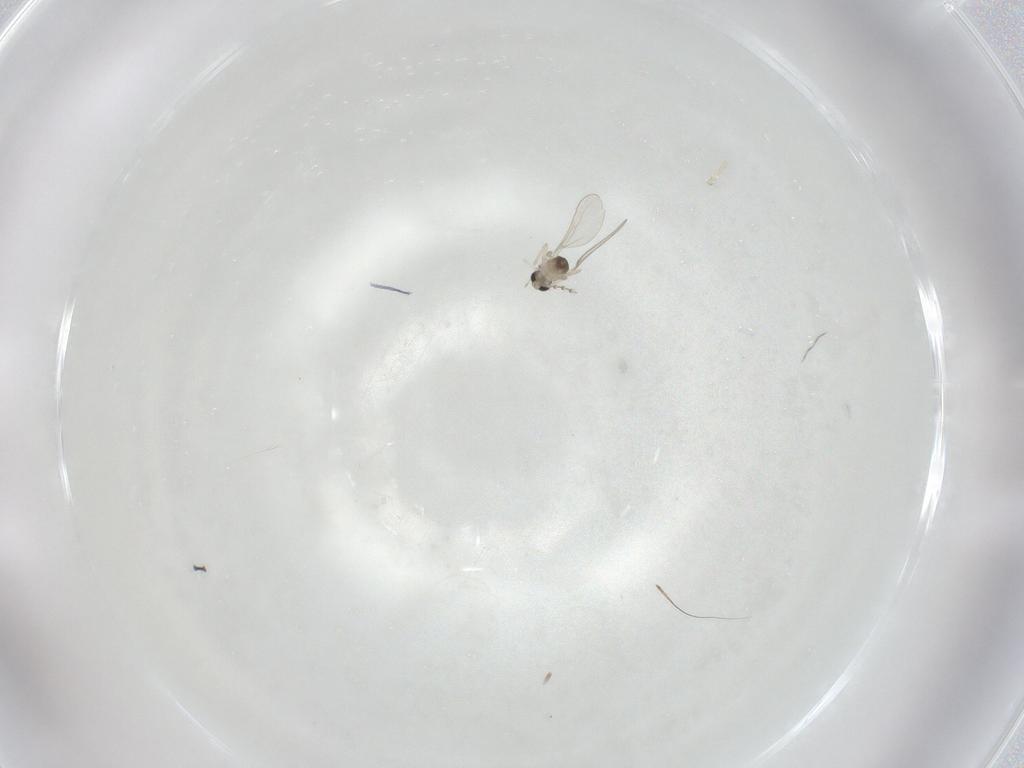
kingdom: Animalia
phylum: Arthropoda
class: Insecta
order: Diptera
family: Cecidomyiidae
